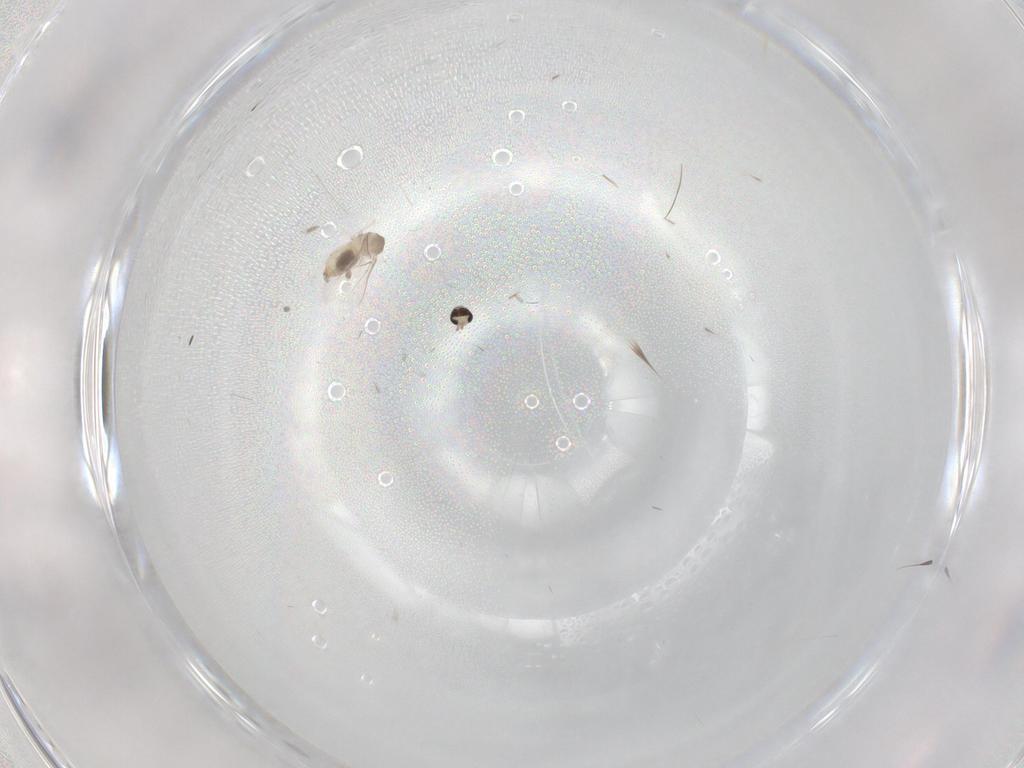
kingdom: Animalia
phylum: Arthropoda
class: Insecta
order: Diptera
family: Cecidomyiidae
